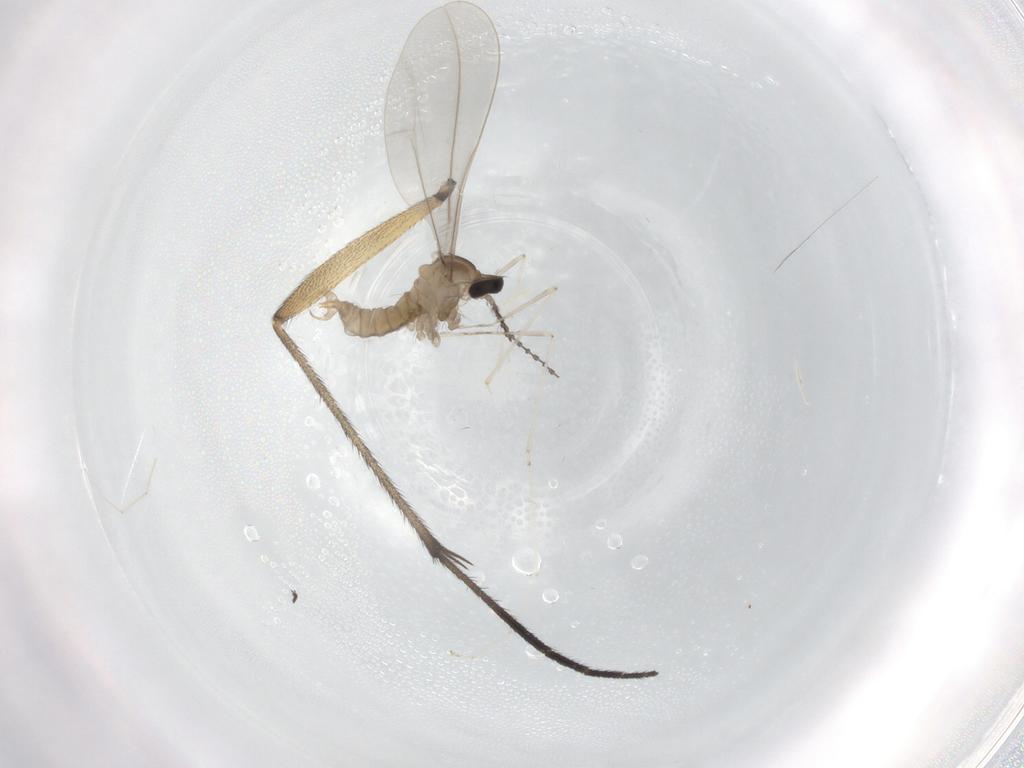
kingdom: Animalia
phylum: Arthropoda
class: Insecta
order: Diptera
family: Cecidomyiidae
